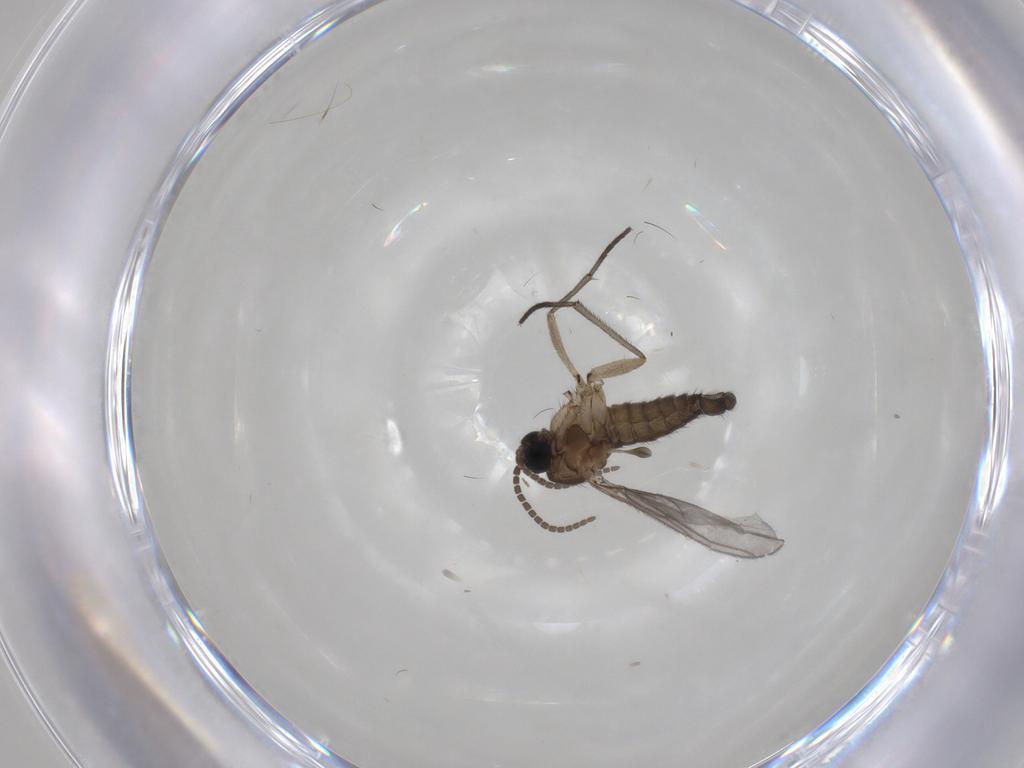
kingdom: Animalia
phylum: Arthropoda
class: Insecta
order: Diptera
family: Sciaridae
